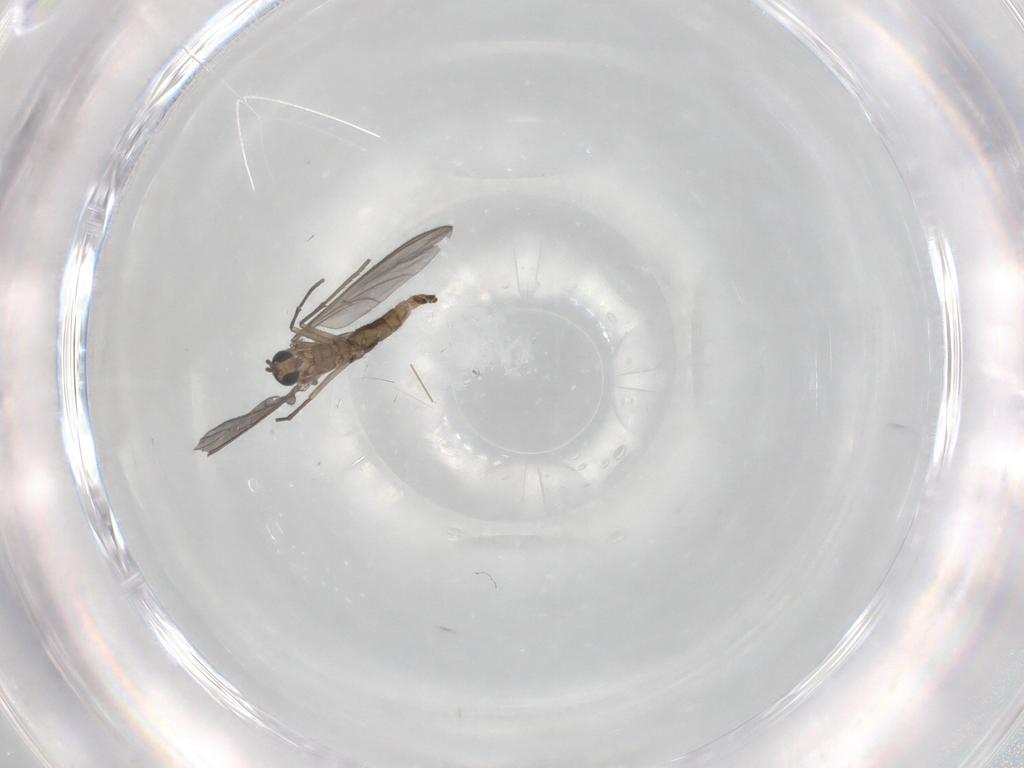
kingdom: Animalia
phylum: Arthropoda
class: Insecta
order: Diptera
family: Sciaridae
